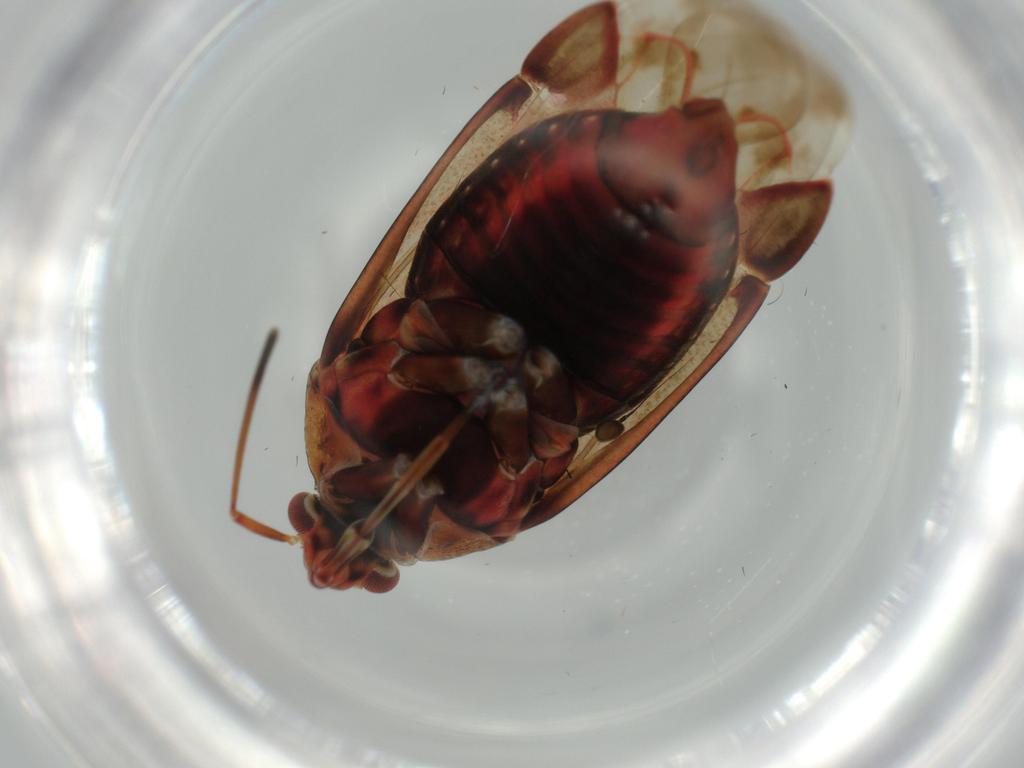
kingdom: Animalia
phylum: Arthropoda
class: Insecta
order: Hemiptera
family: Miridae
